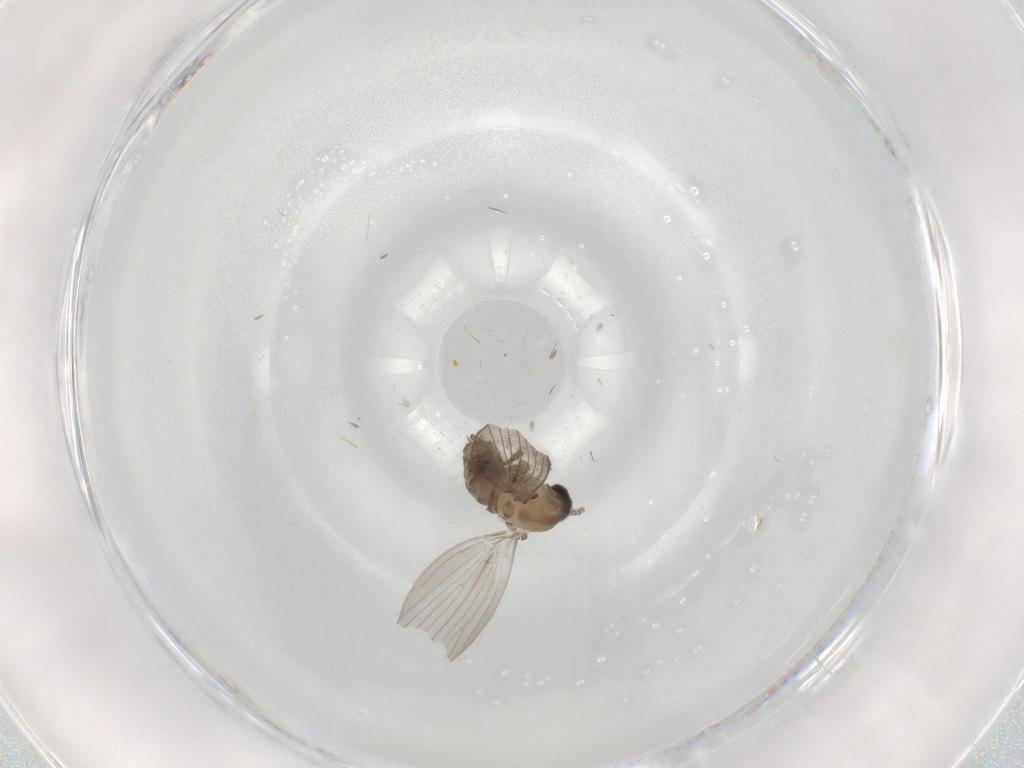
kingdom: Animalia
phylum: Arthropoda
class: Insecta
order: Diptera
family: Psychodidae
